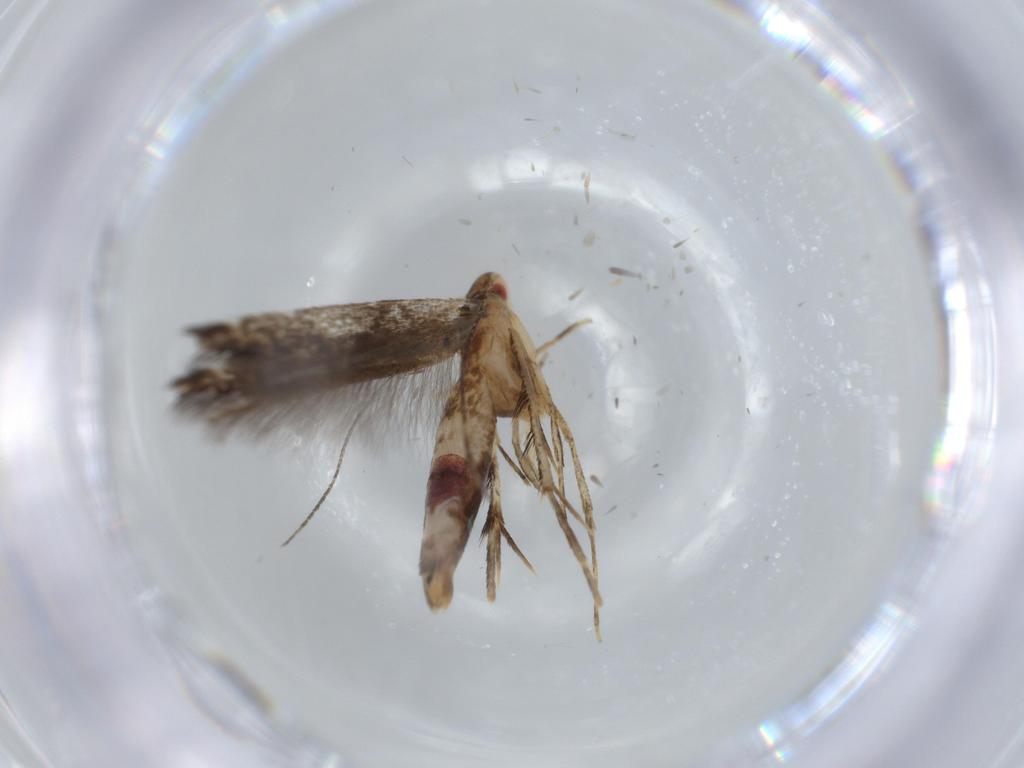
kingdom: Animalia
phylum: Arthropoda
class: Insecta
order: Lepidoptera
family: Cosmopterigidae
